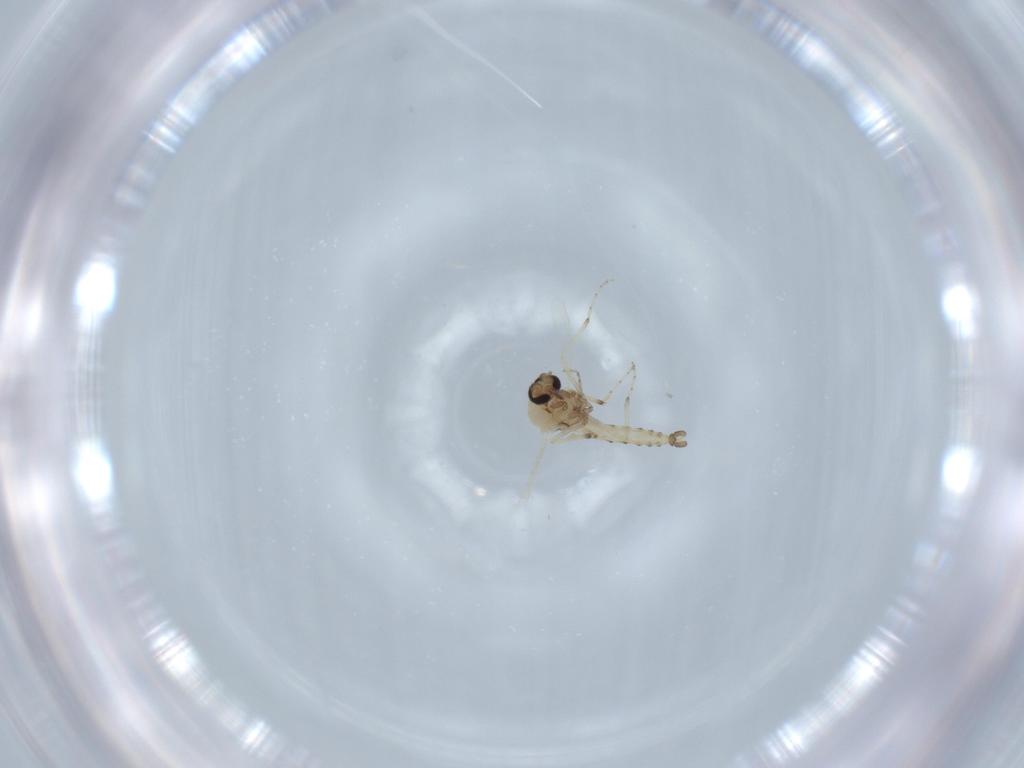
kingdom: Animalia
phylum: Arthropoda
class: Insecta
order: Diptera
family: Ceratopogonidae
